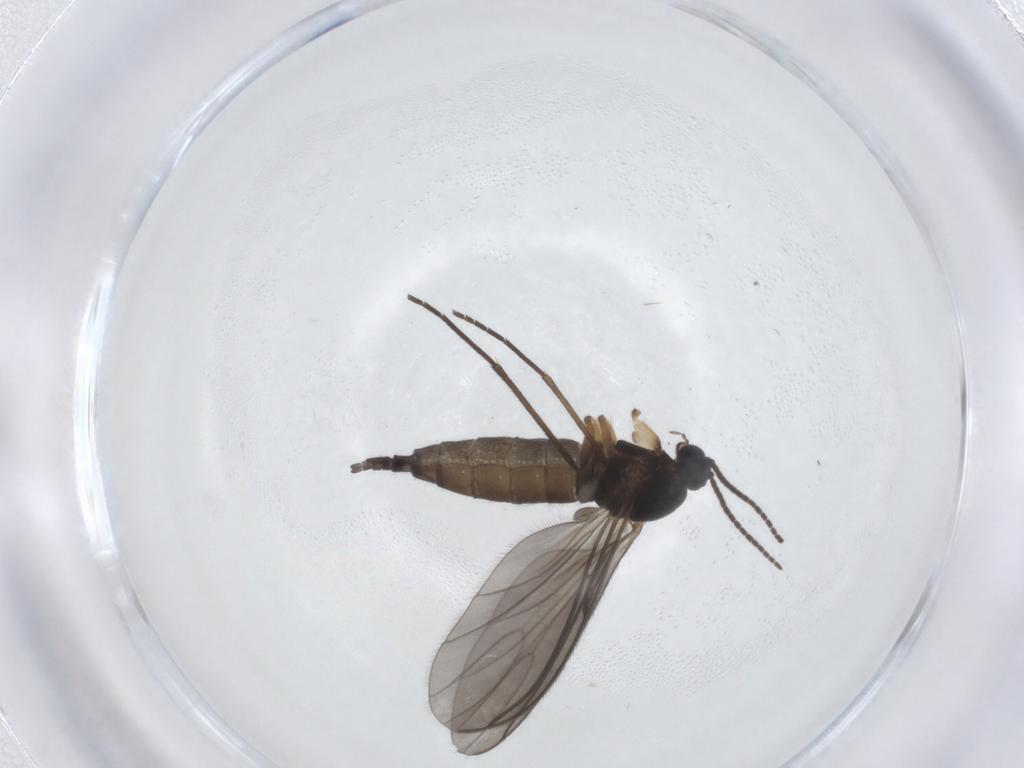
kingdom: Animalia
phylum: Arthropoda
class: Insecta
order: Diptera
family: Sciaridae
